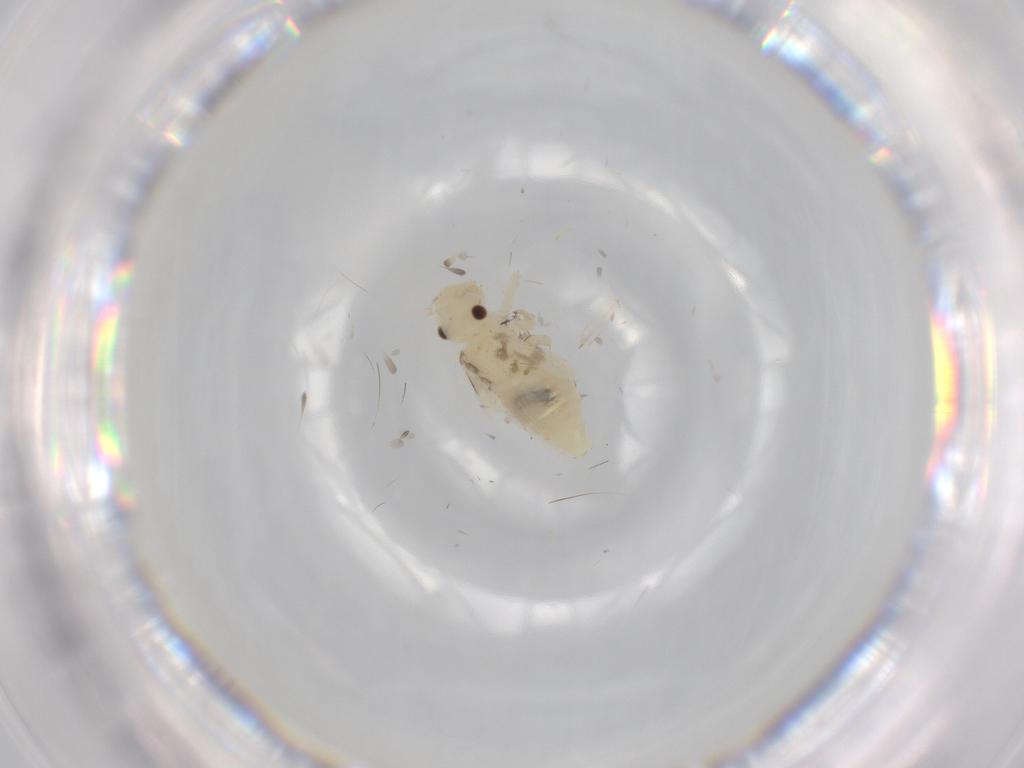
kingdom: Animalia
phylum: Arthropoda
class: Insecta
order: Psocodea
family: Caeciliusidae
